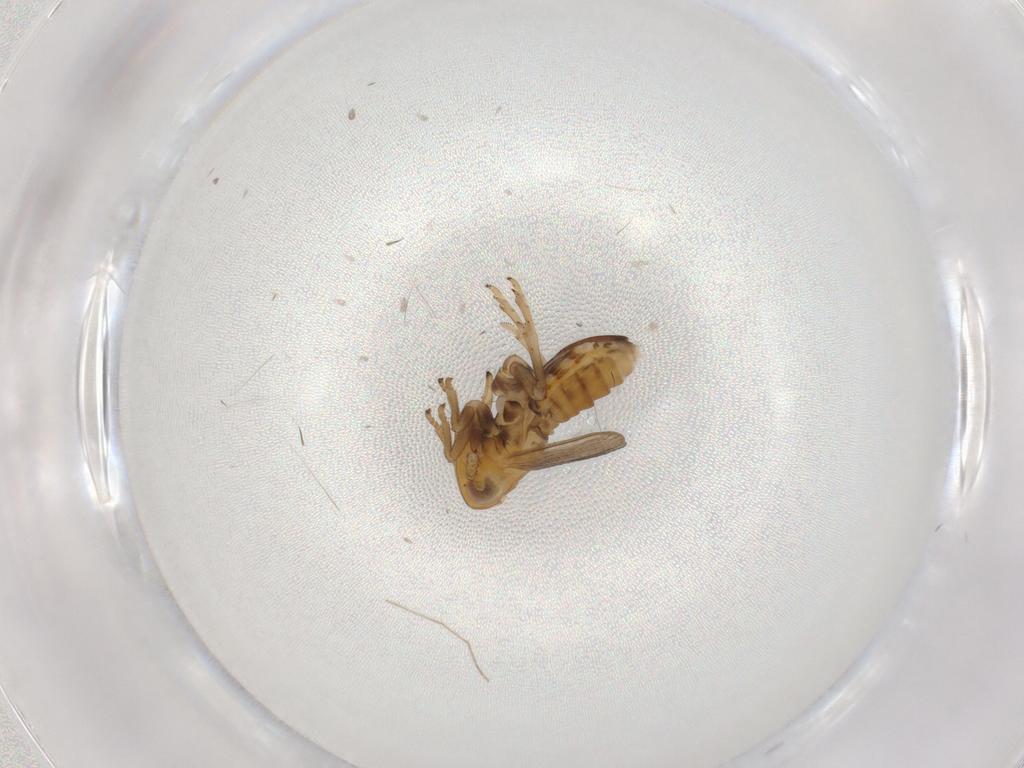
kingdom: Animalia
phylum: Arthropoda
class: Insecta
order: Hemiptera
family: Delphacidae
